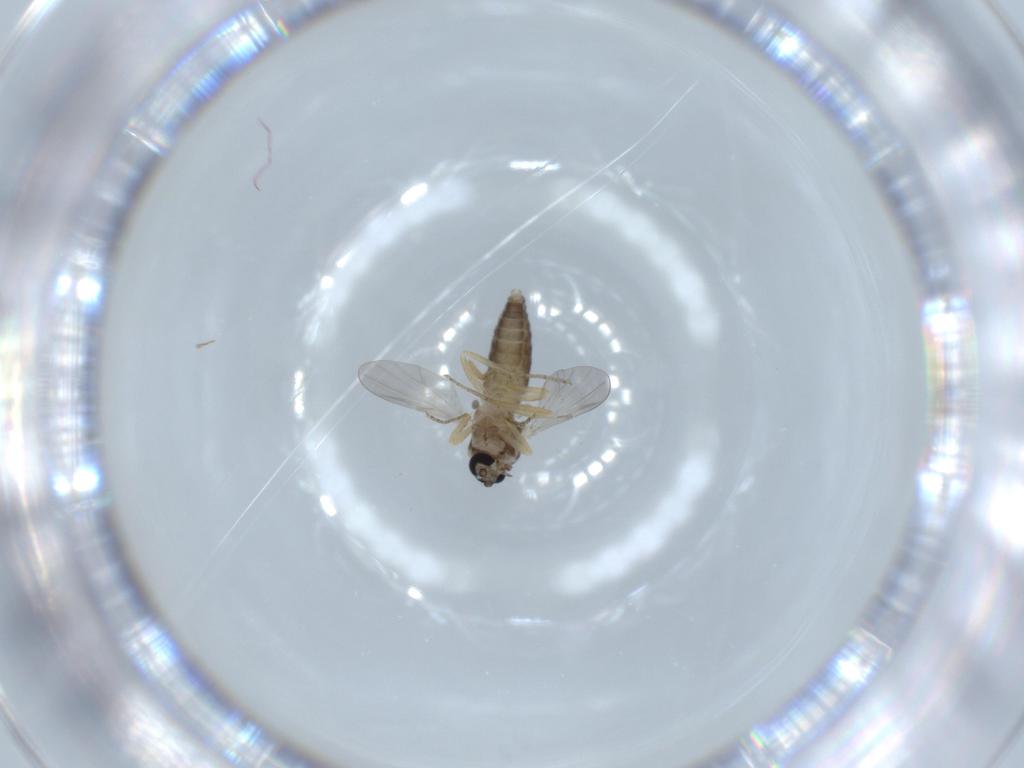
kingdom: Animalia
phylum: Arthropoda
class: Insecta
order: Diptera
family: Ceratopogonidae
